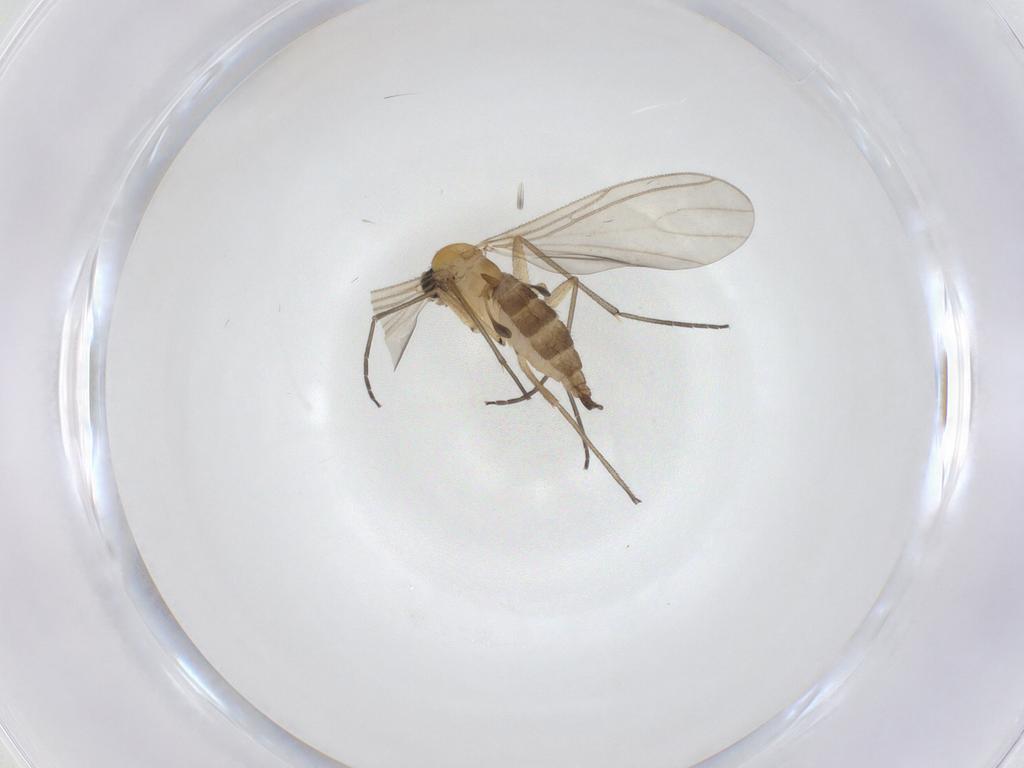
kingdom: Animalia
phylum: Arthropoda
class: Insecta
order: Diptera
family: Sciaridae
